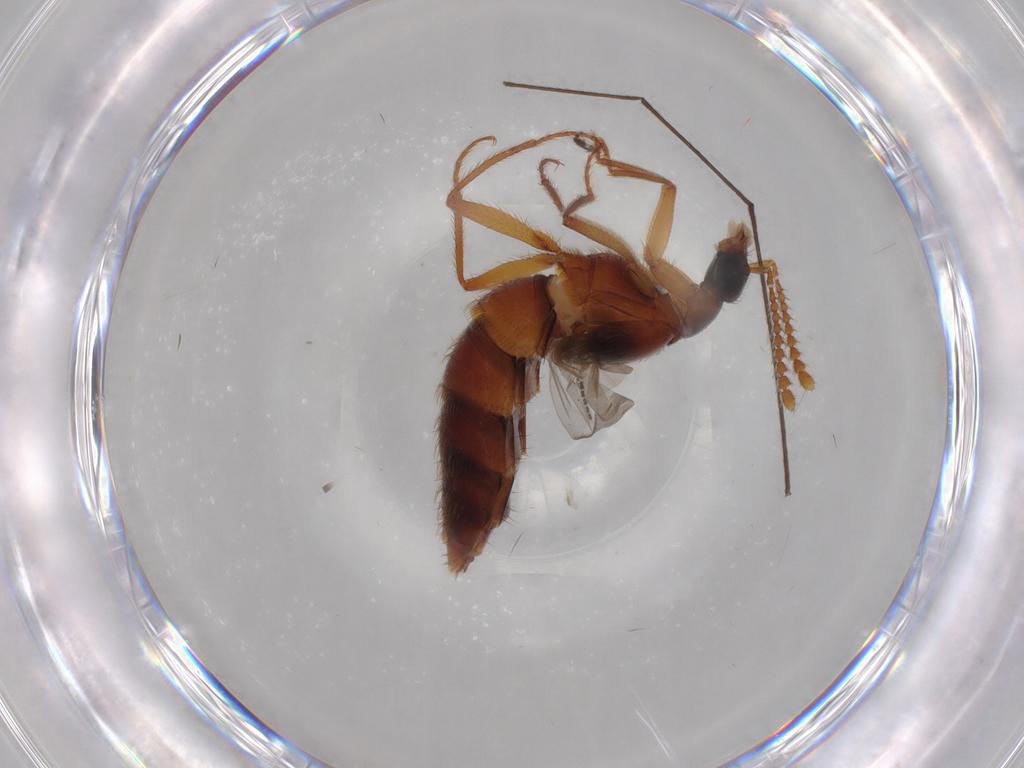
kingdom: Animalia
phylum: Arthropoda
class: Insecta
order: Coleoptera
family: Staphylinidae
